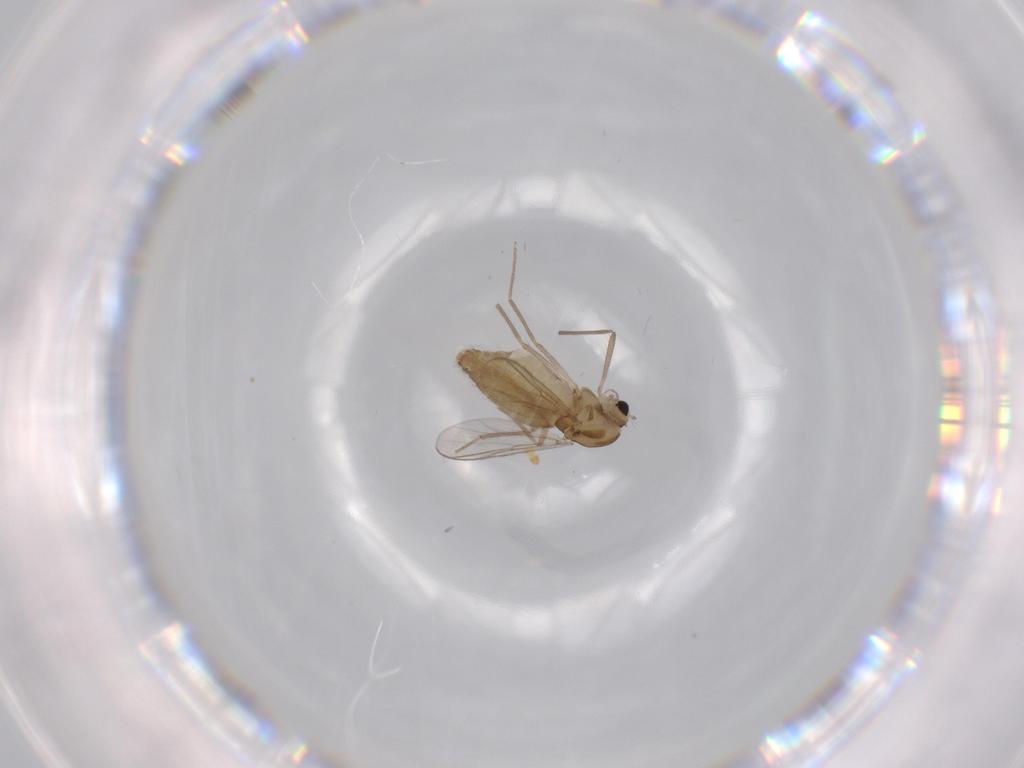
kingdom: Animalia
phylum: Arthropoda
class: Insecta
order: Diptera
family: Chironomidae
